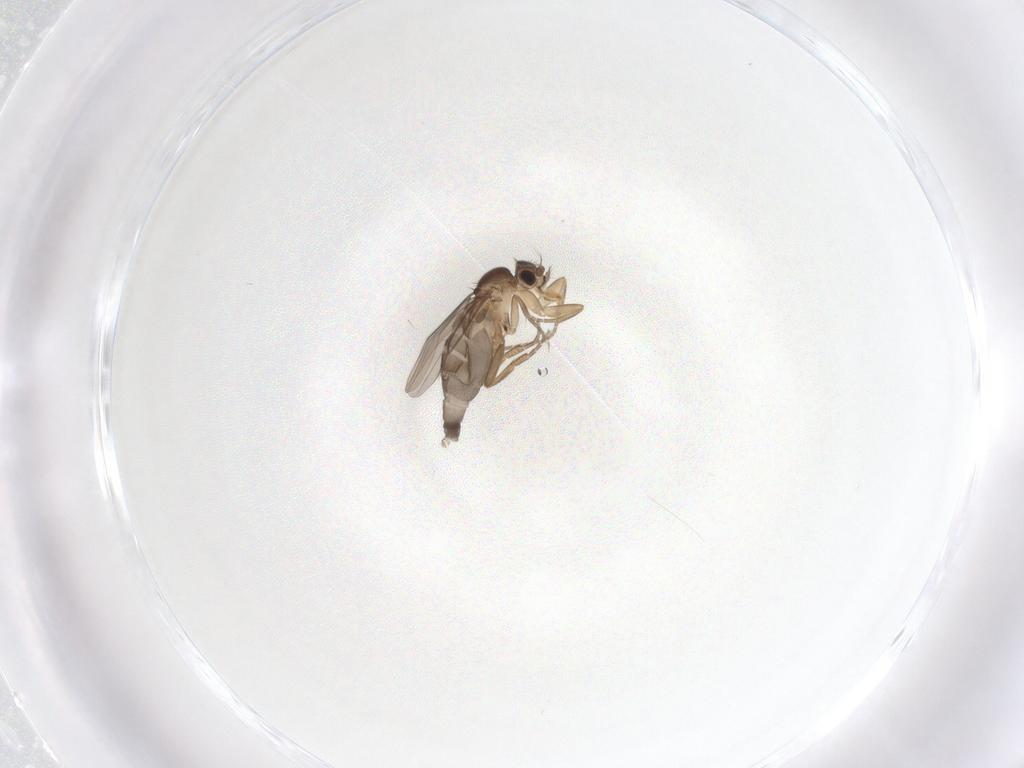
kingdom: Animalia
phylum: Arthropoda
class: Insecta
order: Diptera
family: Phoridae
